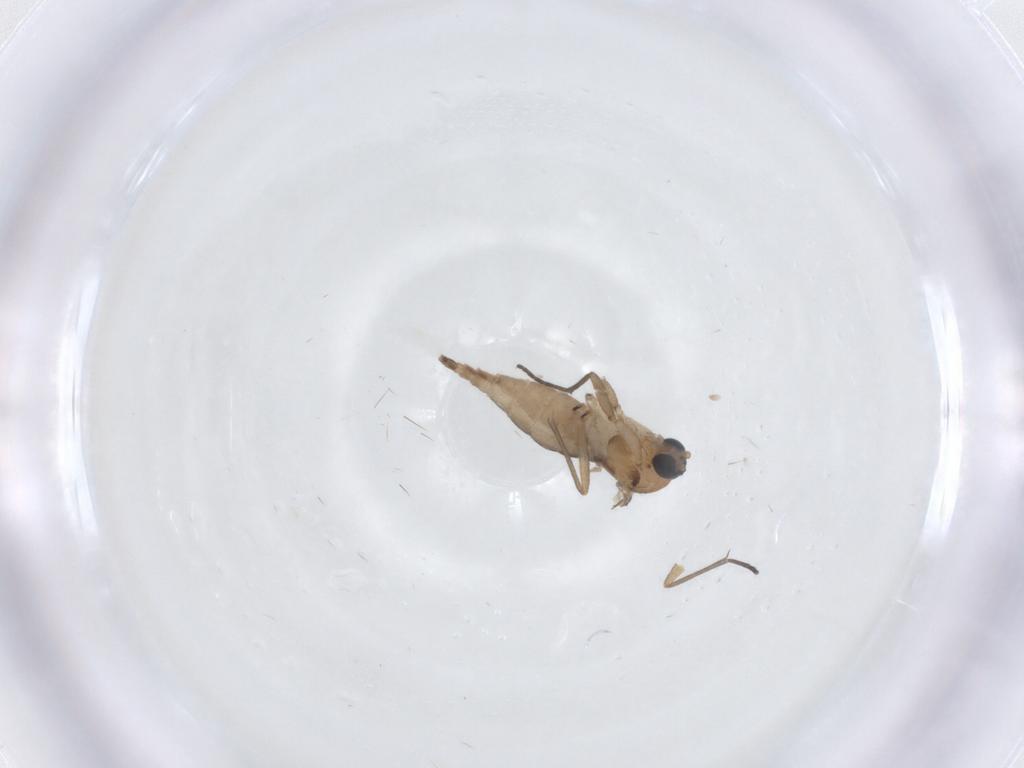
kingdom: Animalia
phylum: Arthropoda
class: Insecta
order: Diptera
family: Sciaridae
